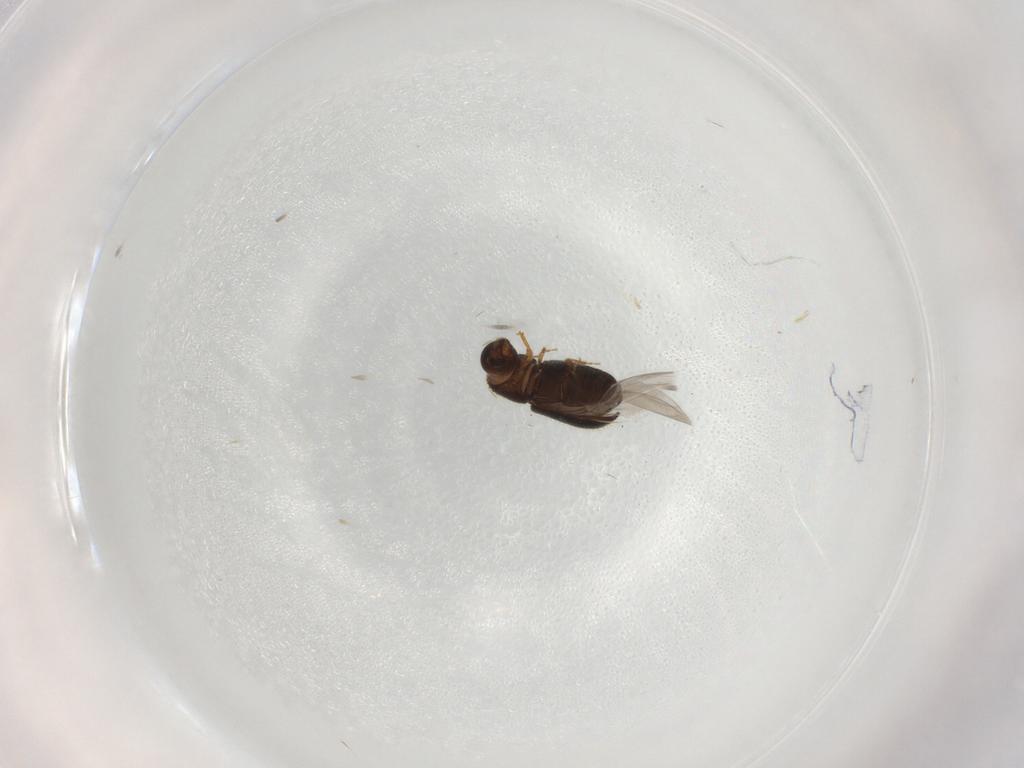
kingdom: Animalia
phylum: Arthropoda
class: Insecta
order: Coleoptera
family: Curculionidae
